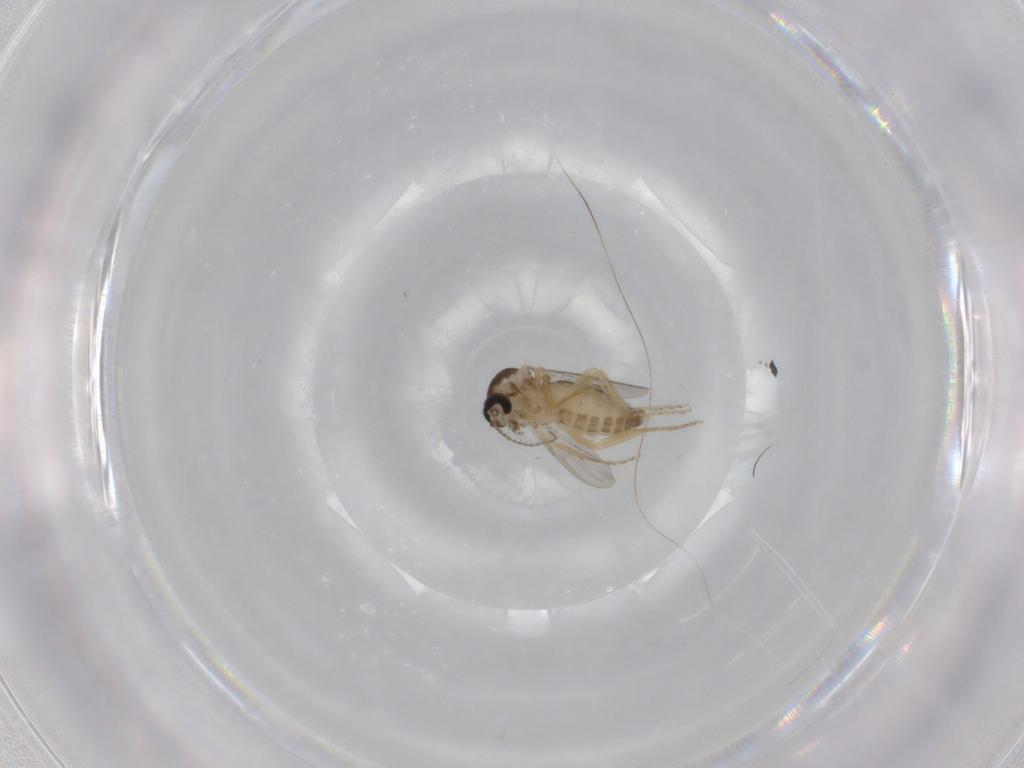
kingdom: Animalia
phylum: Arthropoda
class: Insecta
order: Diptera
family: Ceratopogonidae
